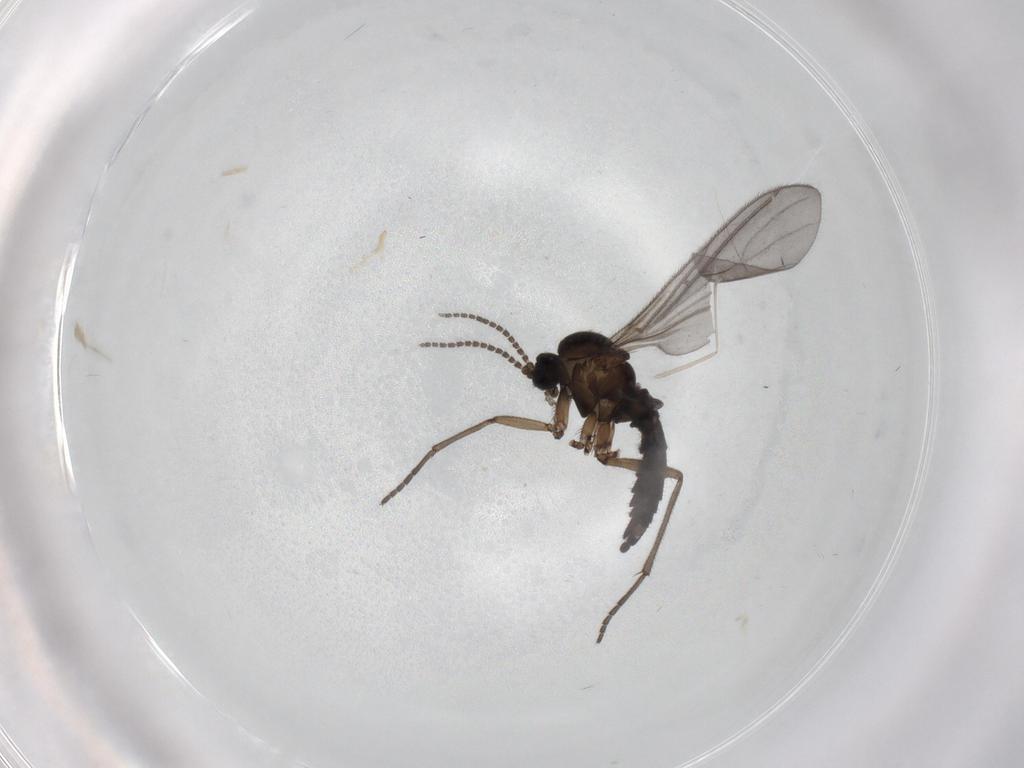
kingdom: Animalia
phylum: Arthropoda
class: Insecta
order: Diptera
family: Sciaridae
